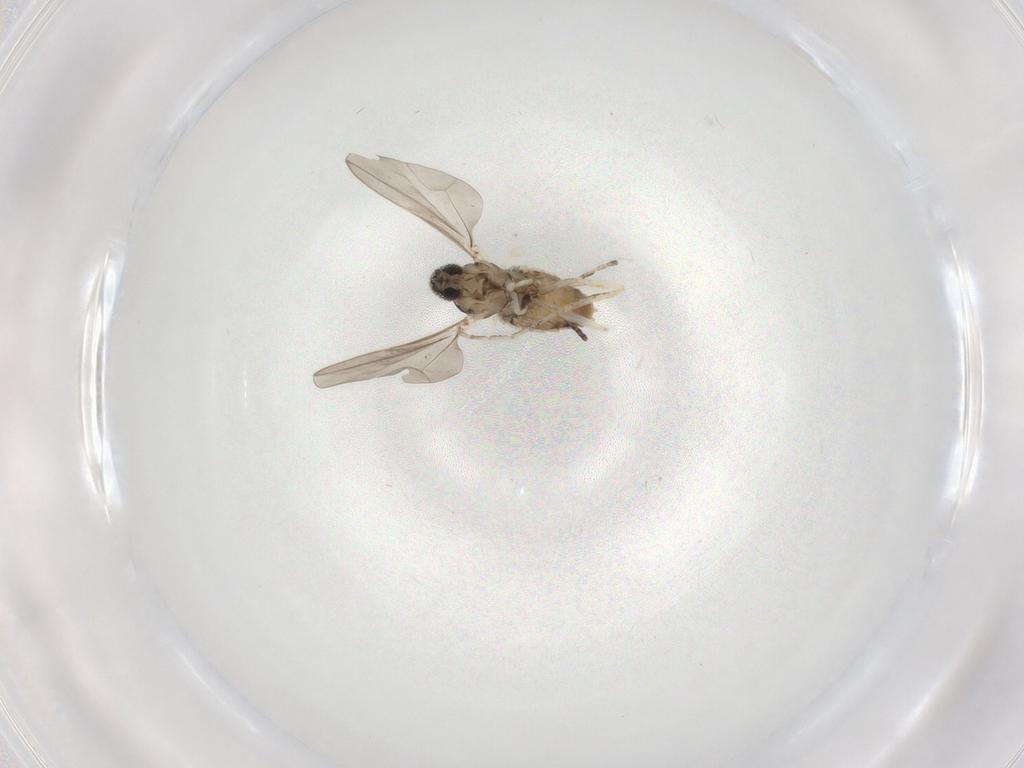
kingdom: Animalia
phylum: Arthropoda
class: Insecta
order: Diptera
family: Cecidomyiidae
